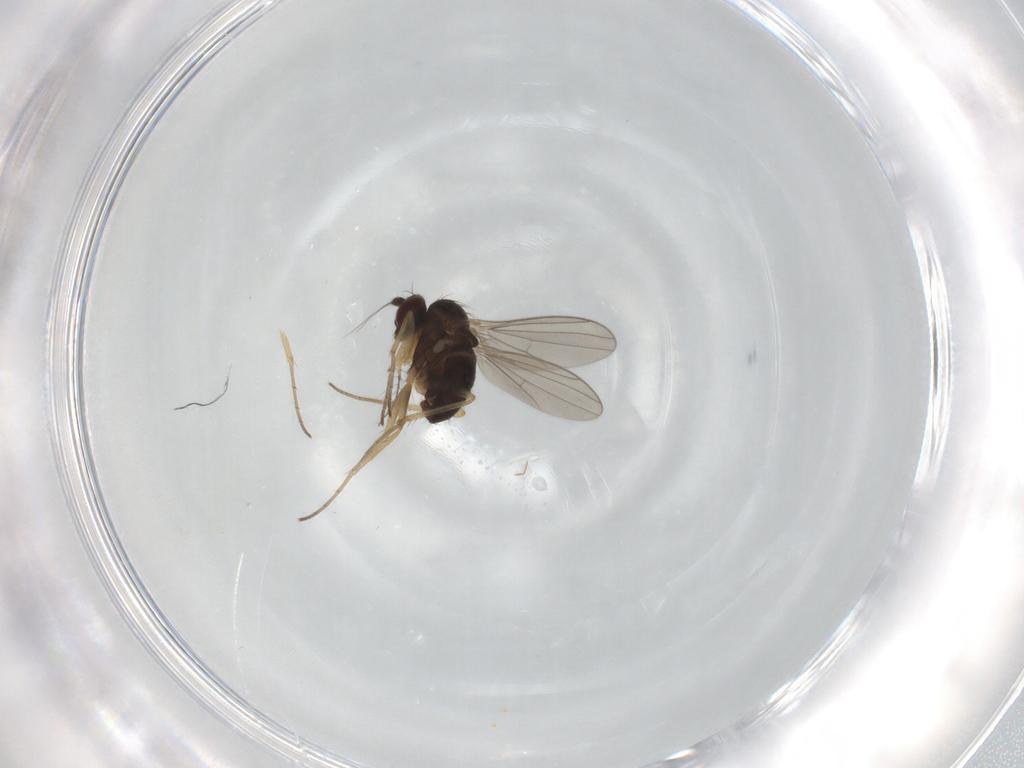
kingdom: Animalia
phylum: Arthropoda
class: Insecta
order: Diptera
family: Dolichopodidae
